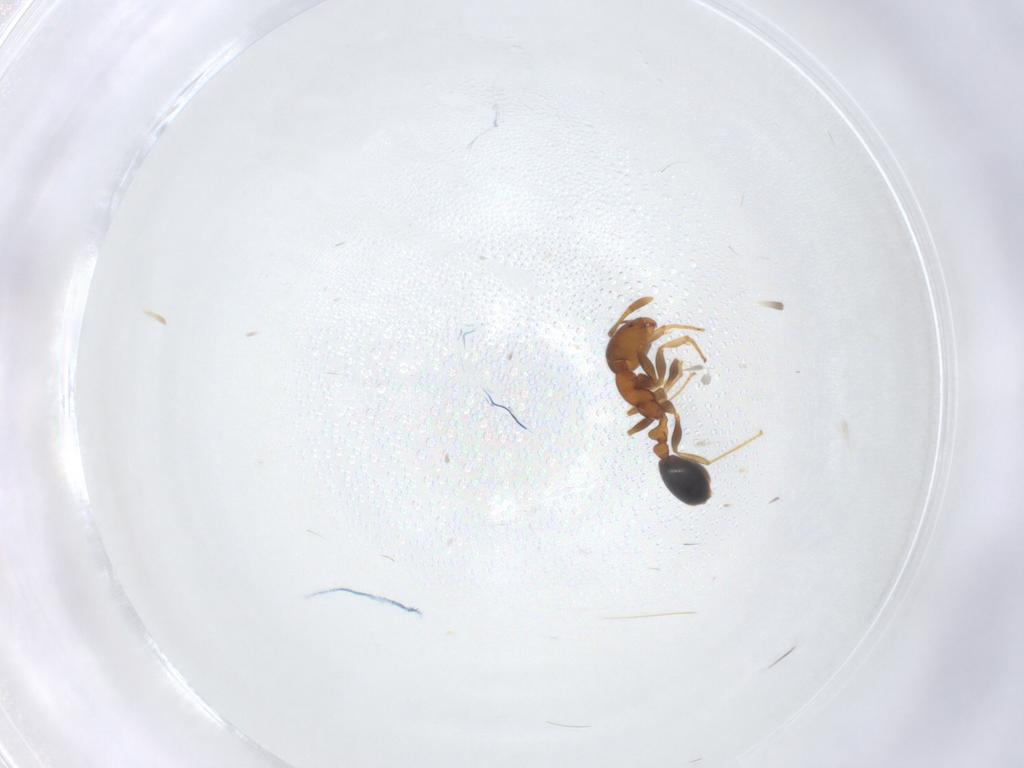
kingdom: Animalia
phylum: Arthropoda
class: Insecta
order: Hymenoptera
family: Formicidae
